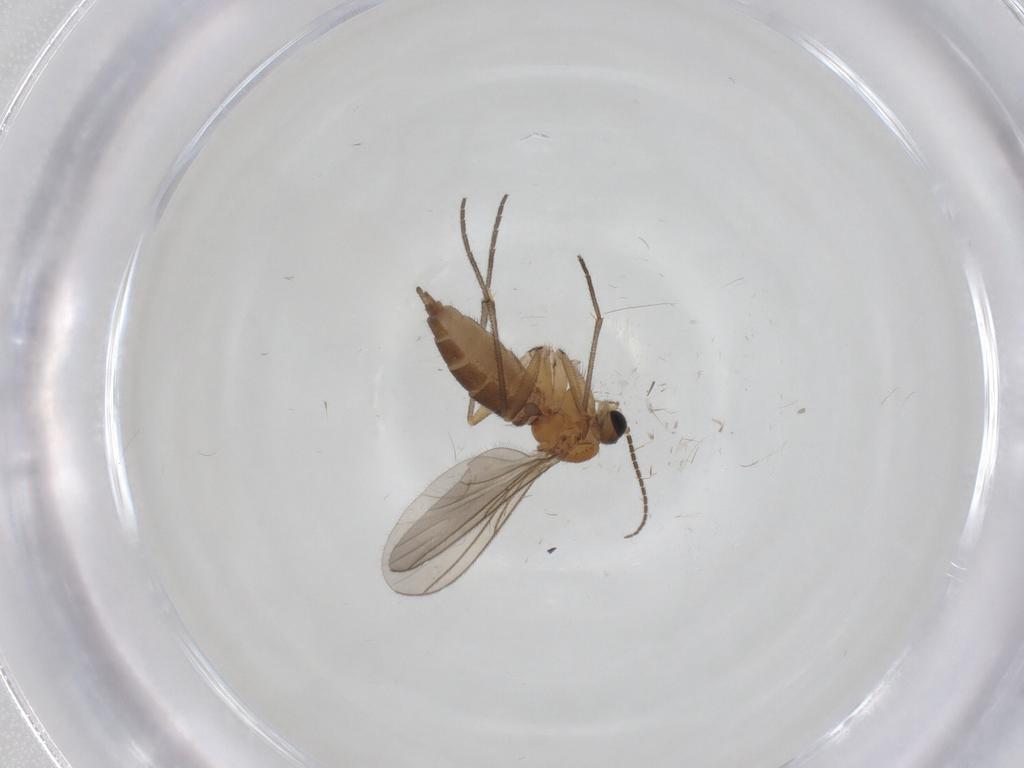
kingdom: Animalia
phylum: Arthropoda
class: Insecta
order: Diptera
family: Sciaridae
